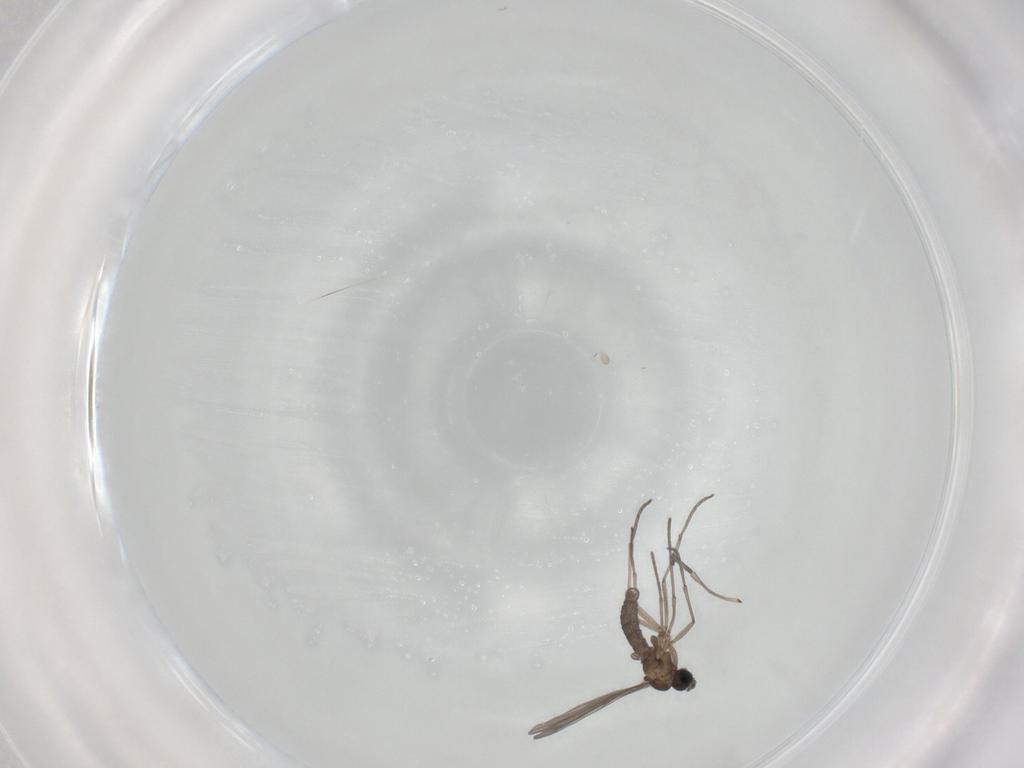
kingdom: Animalia
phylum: Arthropoda
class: Insecta
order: Diptera
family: Sciaridae
